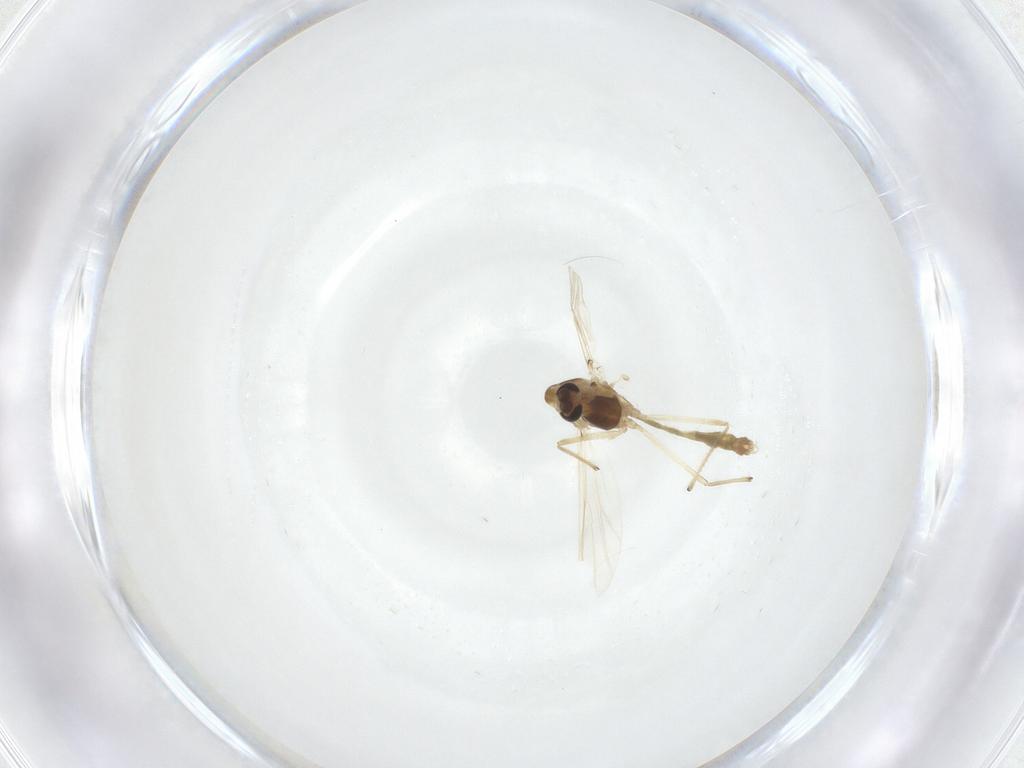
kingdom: Animalia
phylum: Arthropoda
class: Insecta
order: Diptera
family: Chironomidae
